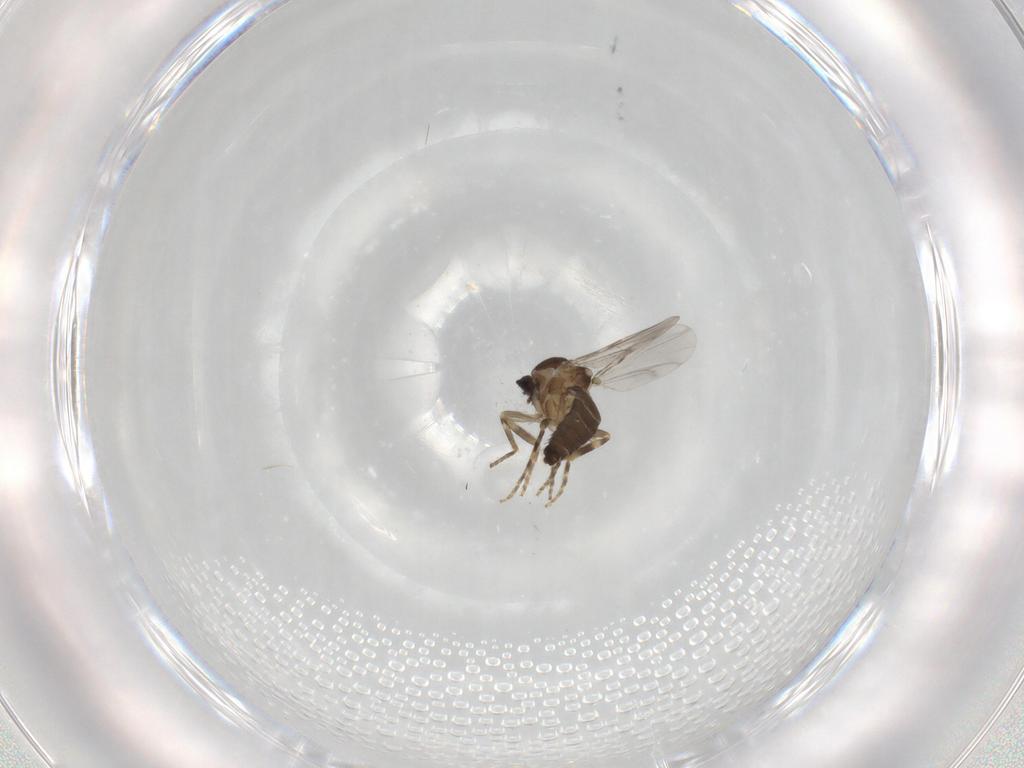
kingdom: Animalia
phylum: Arthropoda
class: Insecta
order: Diptera
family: Ceratopogonidae
